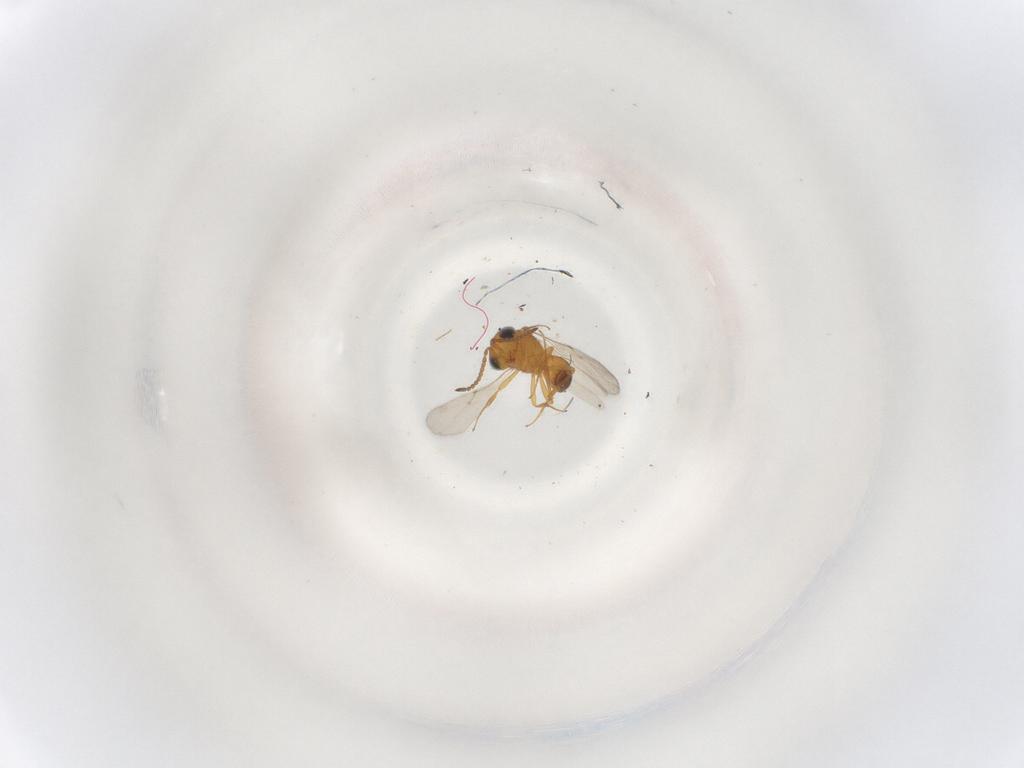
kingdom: Animalia
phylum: Arthropoda
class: Insecta
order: Hymenoptera
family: Scelionidae
